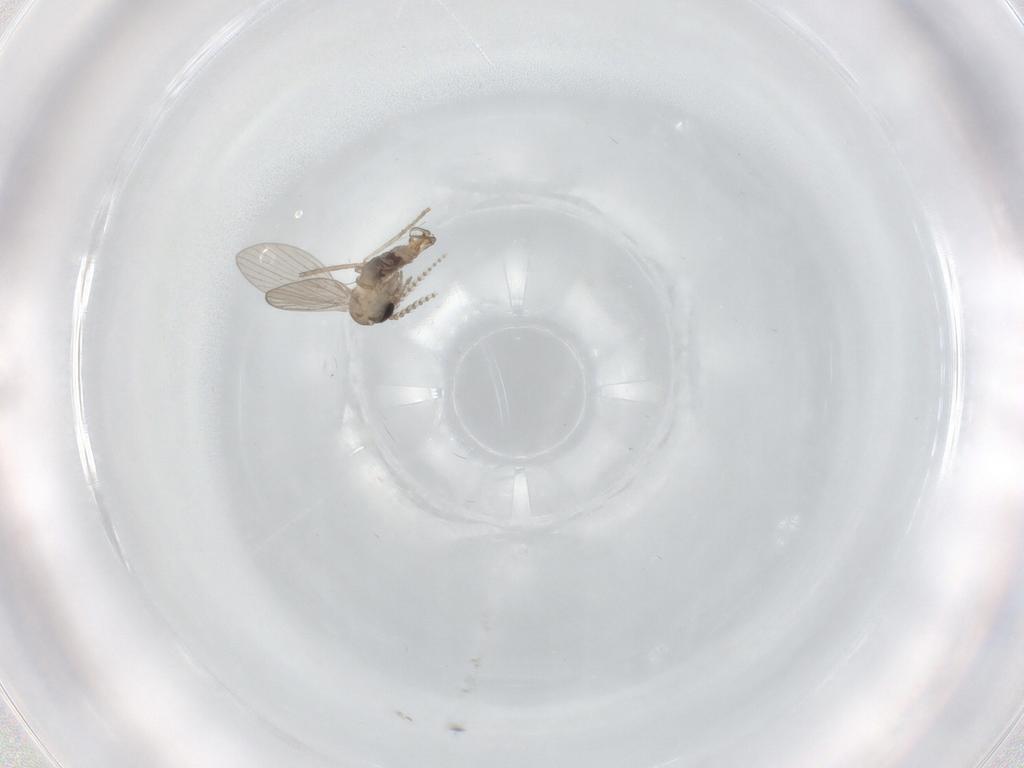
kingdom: Animalia
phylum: Arthropoda
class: Insecta
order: Diptera
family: Psychodidae
